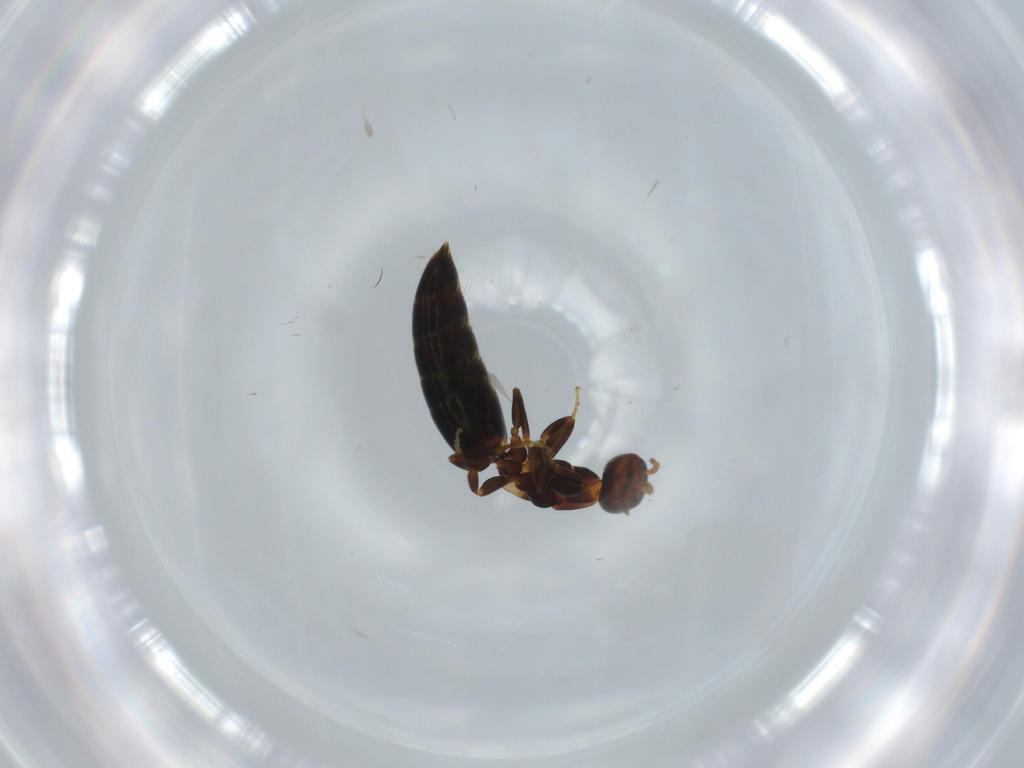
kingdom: Animalia
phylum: Arthropoda
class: Insecta
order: Hymenoptera
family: Bethylidae
